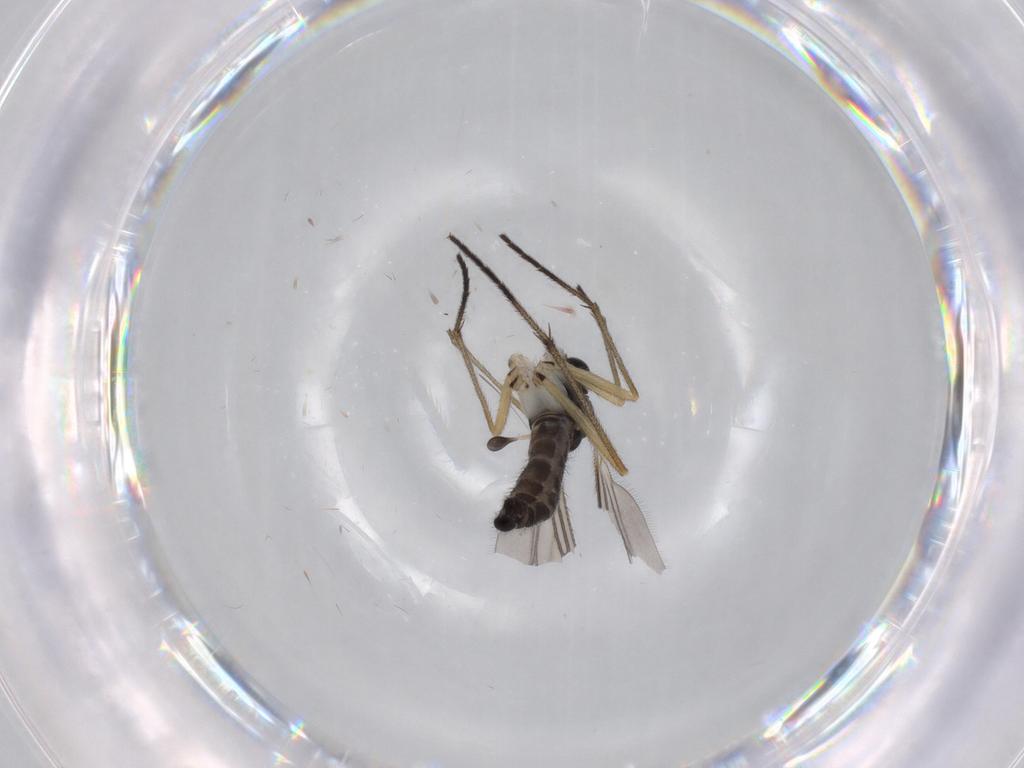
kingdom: Animalia
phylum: Arthropoda
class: Insecta
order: Diptera
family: Sciaridae
